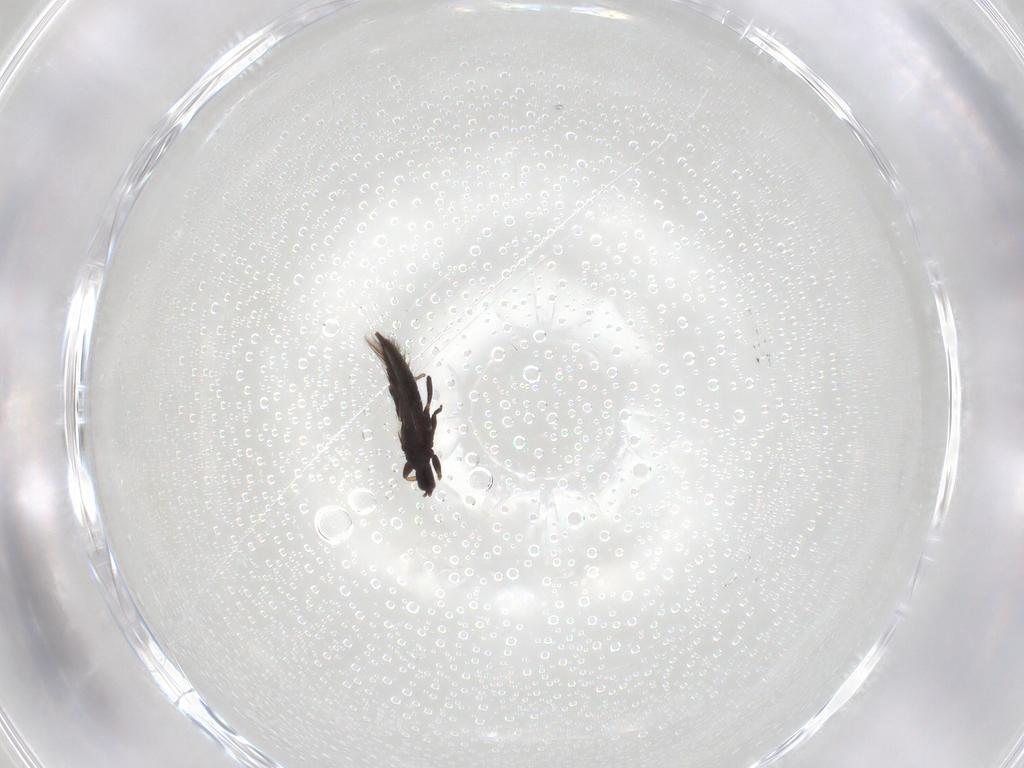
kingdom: Animalia
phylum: Arthropoda
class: Insecta
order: Thysanoptera
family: Phlaeothripidae
